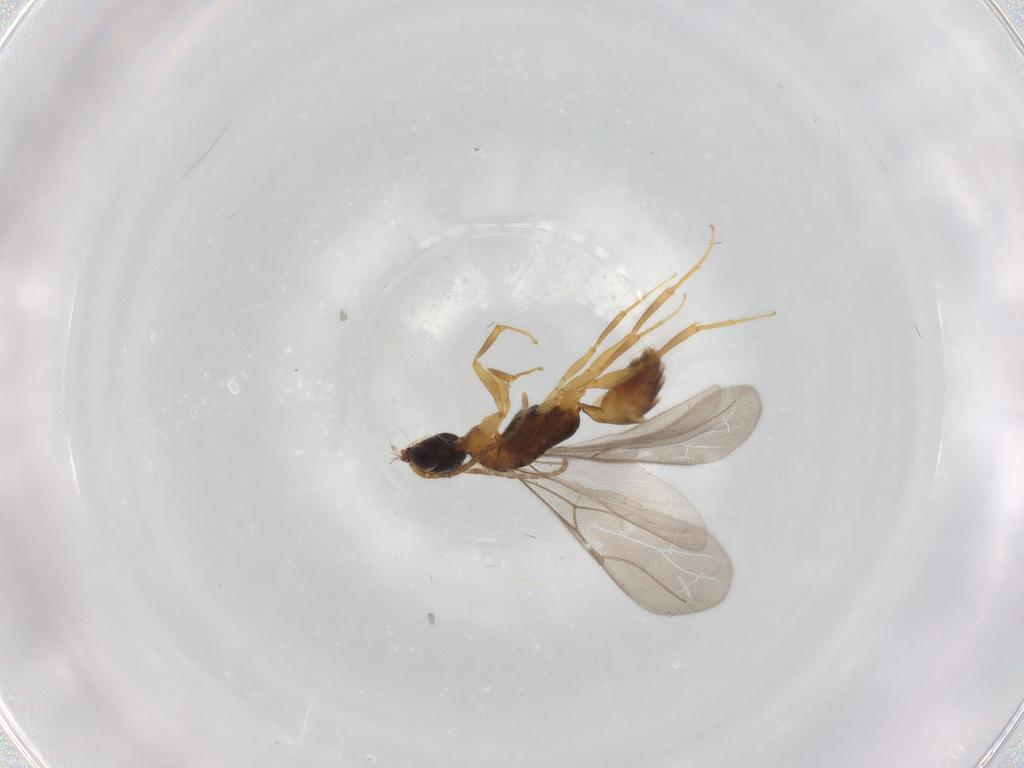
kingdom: Animalia
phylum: Arthropoda
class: Insecta
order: Hymenoptera
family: Bethylidae
